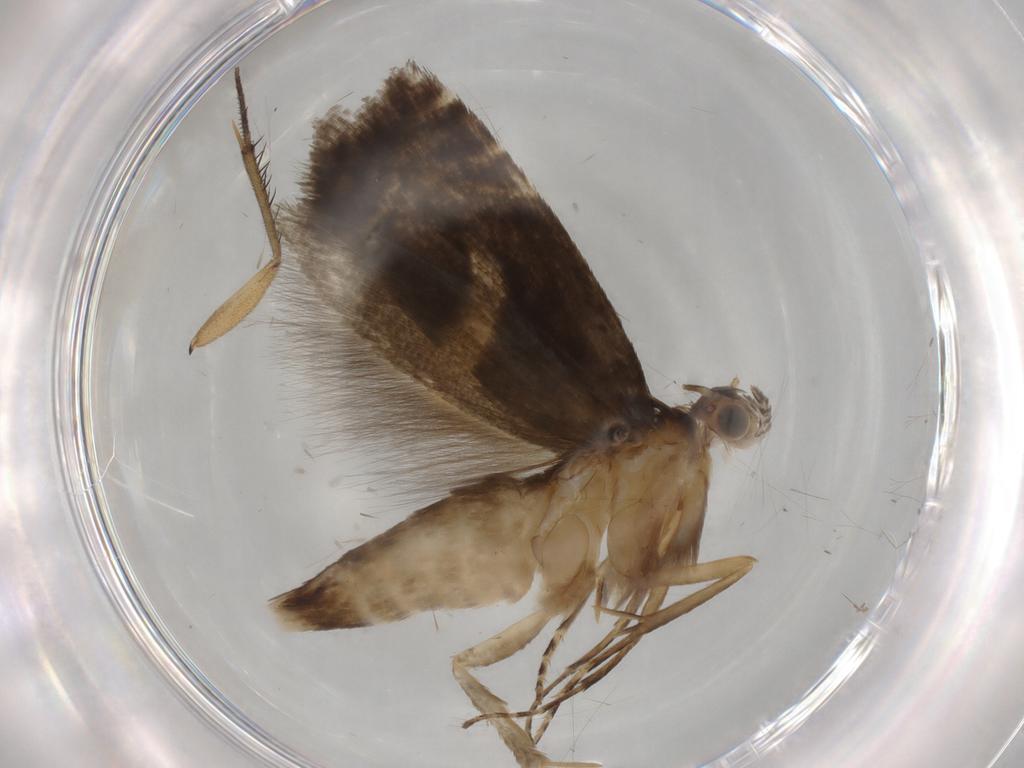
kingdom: Animalia
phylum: Arthropoda
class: Insecta
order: Lepidoptera
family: Glyphipterigidae
